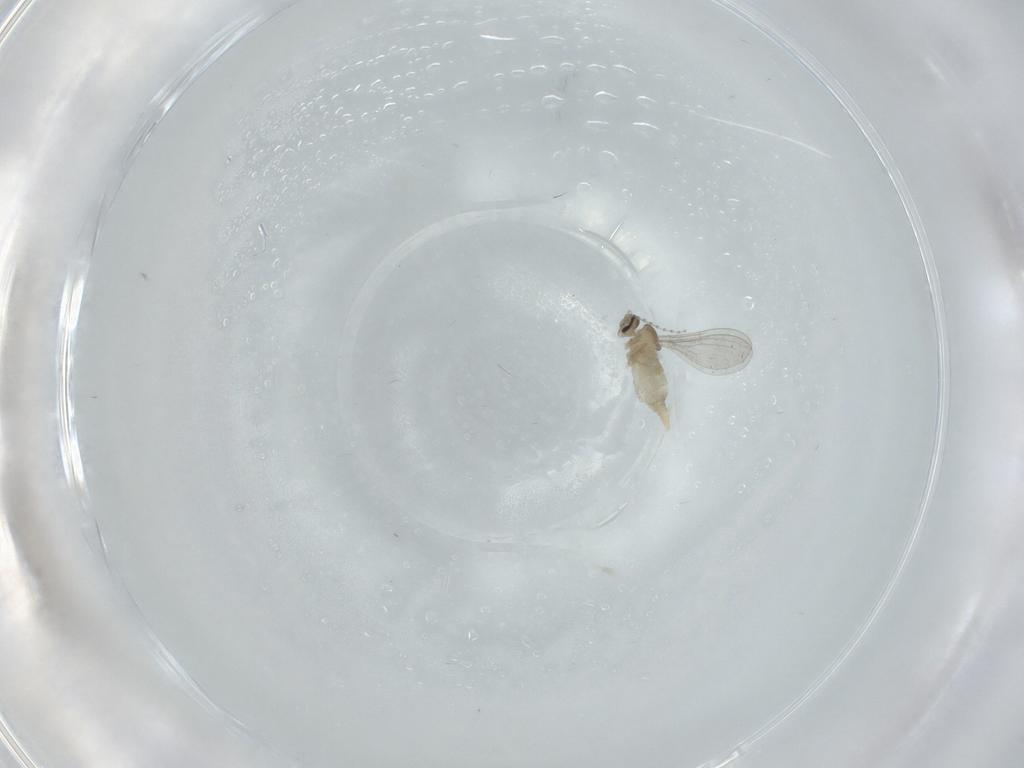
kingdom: Animalia
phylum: Arthropoda
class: Insecta
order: Diptera
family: Cecidomyiidae
